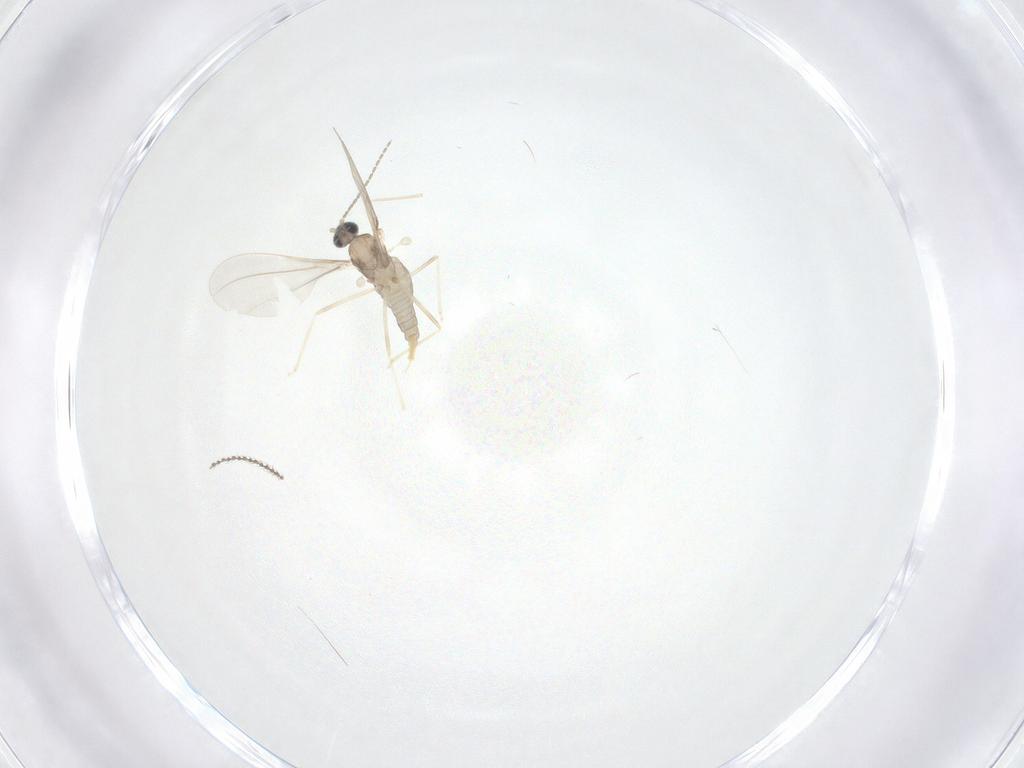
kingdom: Animalia
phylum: Arthropoda
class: Insecta
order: Diptera
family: Cecidomyiidae
